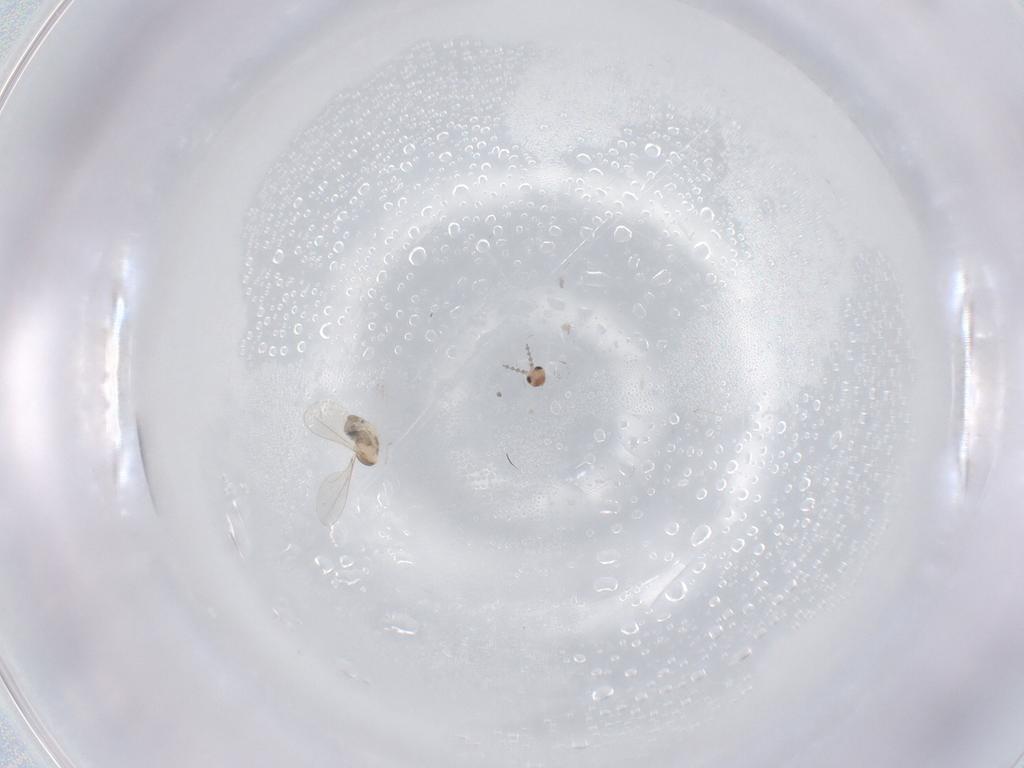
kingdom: Animalia
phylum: Arthropoda
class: Insecta
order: Diptera
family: Cecidomyiidae
